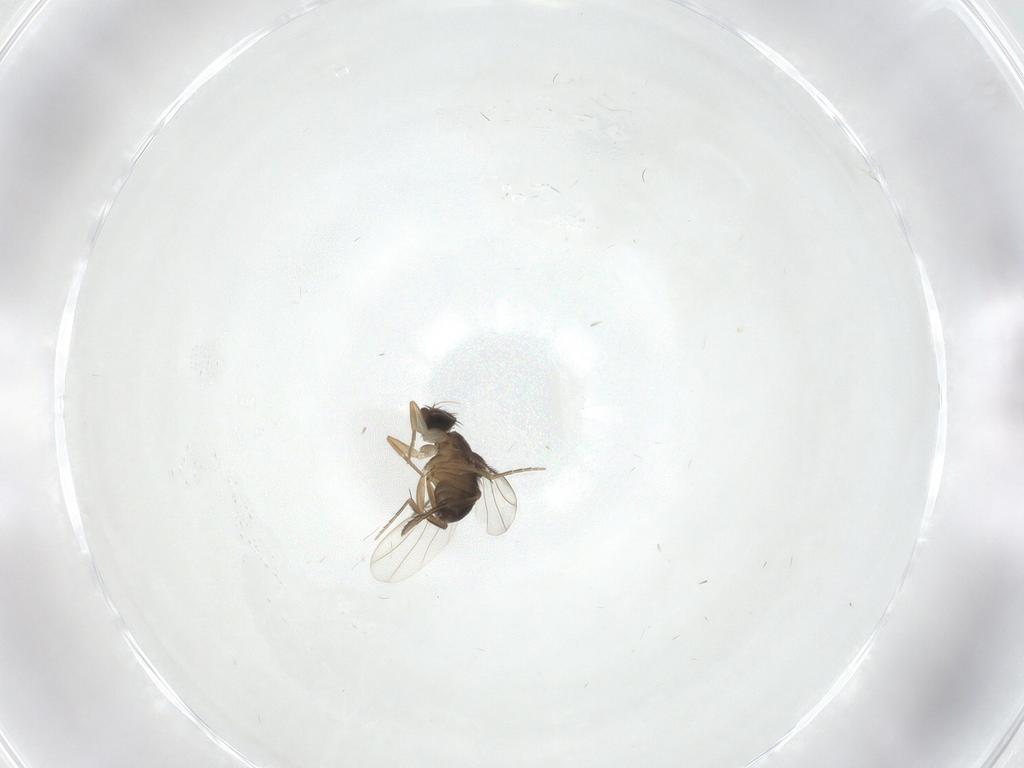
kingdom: Animalia
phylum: Arthropoda
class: Insecta
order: Diptera
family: Phoridae
